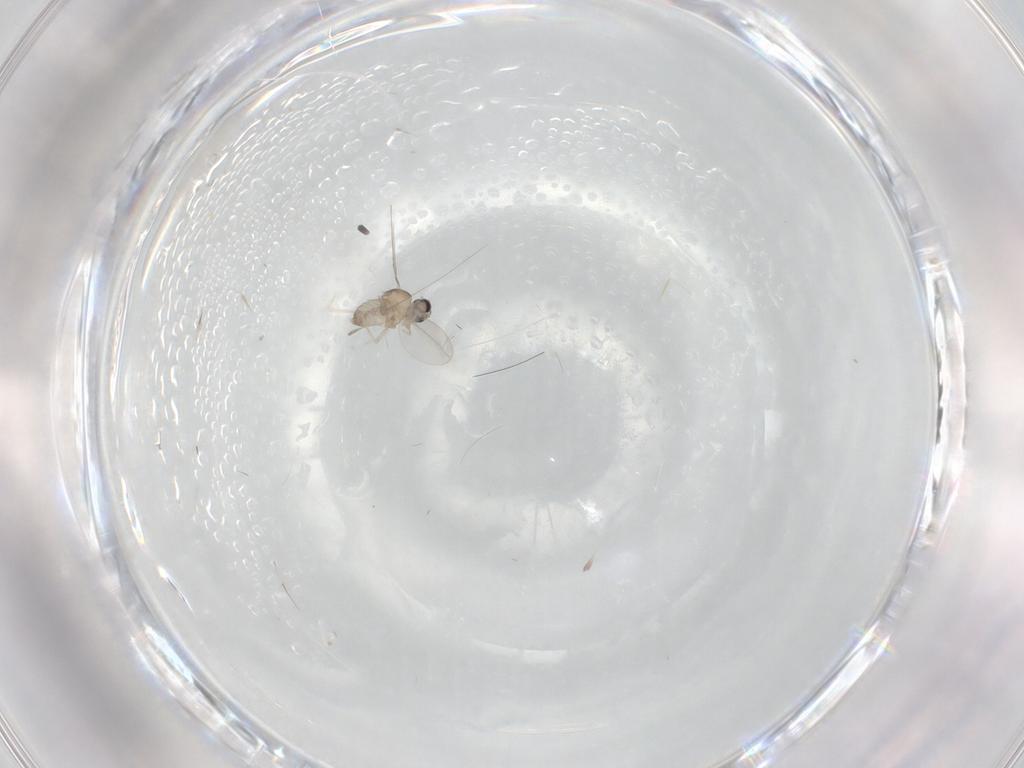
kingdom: Animalia
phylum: Arthropoda
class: Insecta
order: Diptera
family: Cecidomyiidae
